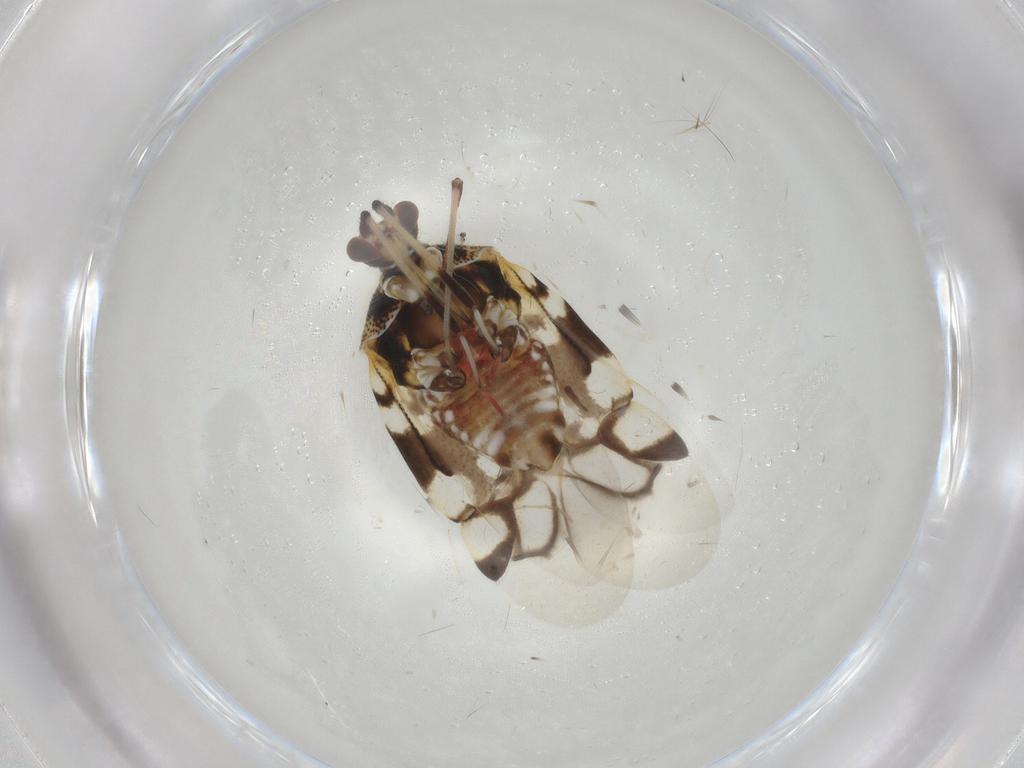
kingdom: Animalia
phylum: Arthropoda
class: Insecta
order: Hemiptera
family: Miridae
